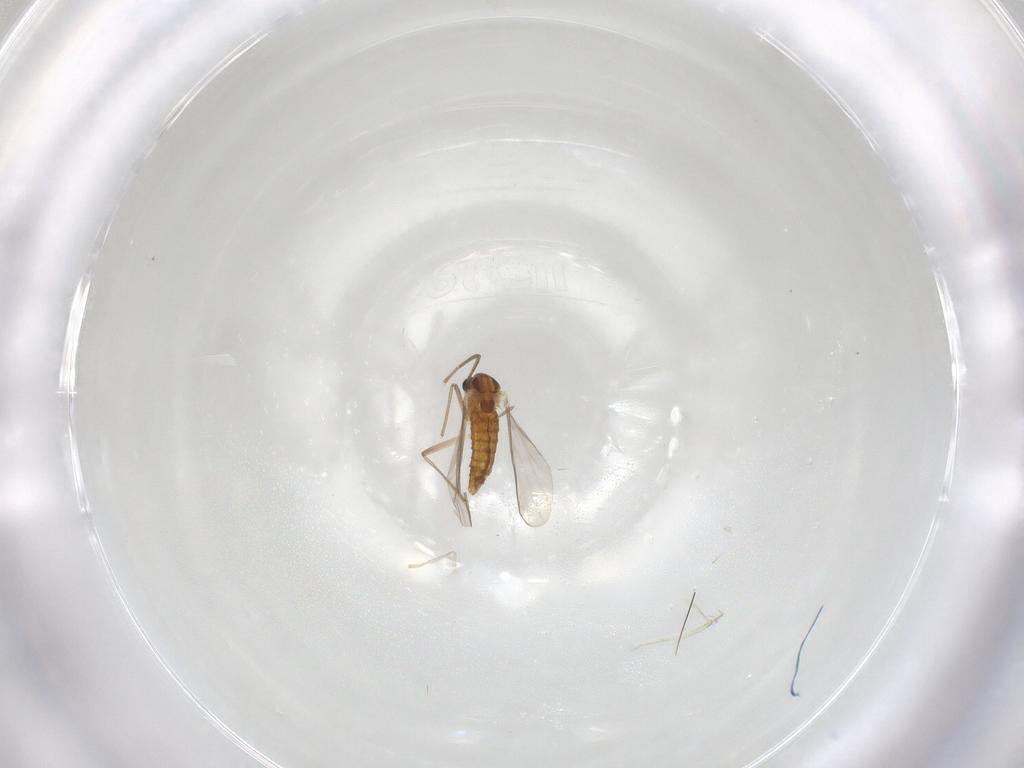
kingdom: Animalia
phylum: Arthropoda
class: Insecta
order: Diptera
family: Chironomidae
